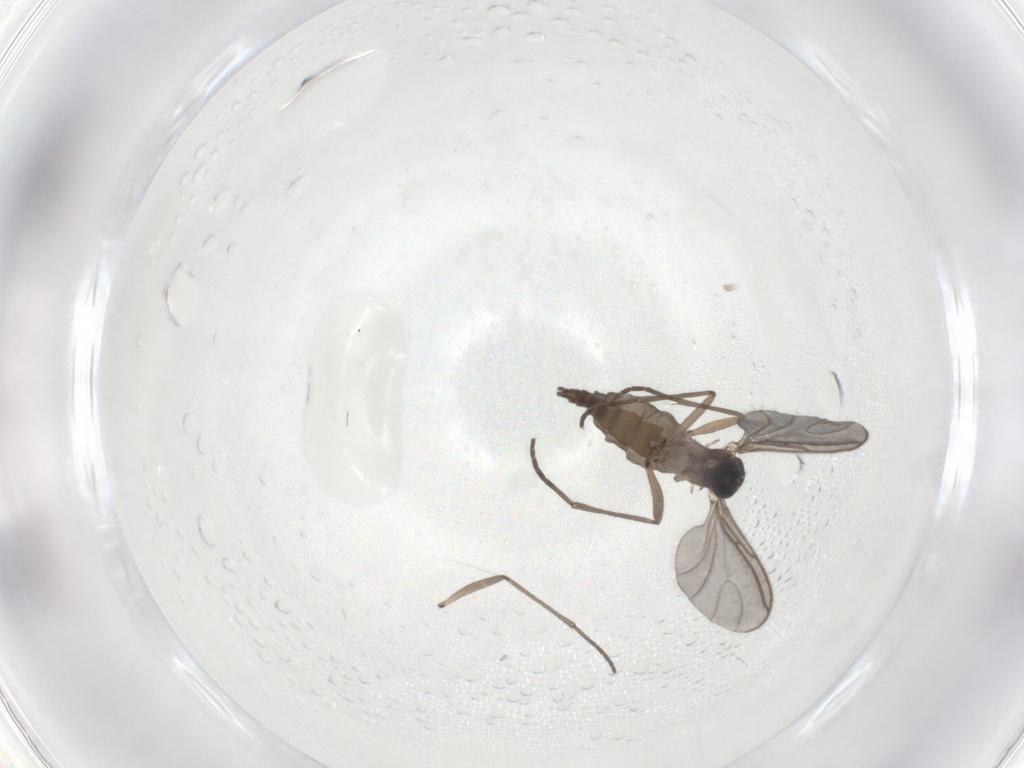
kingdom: Animalia
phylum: Arthropoda
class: Insecta
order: Diptera
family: Sciaridae
